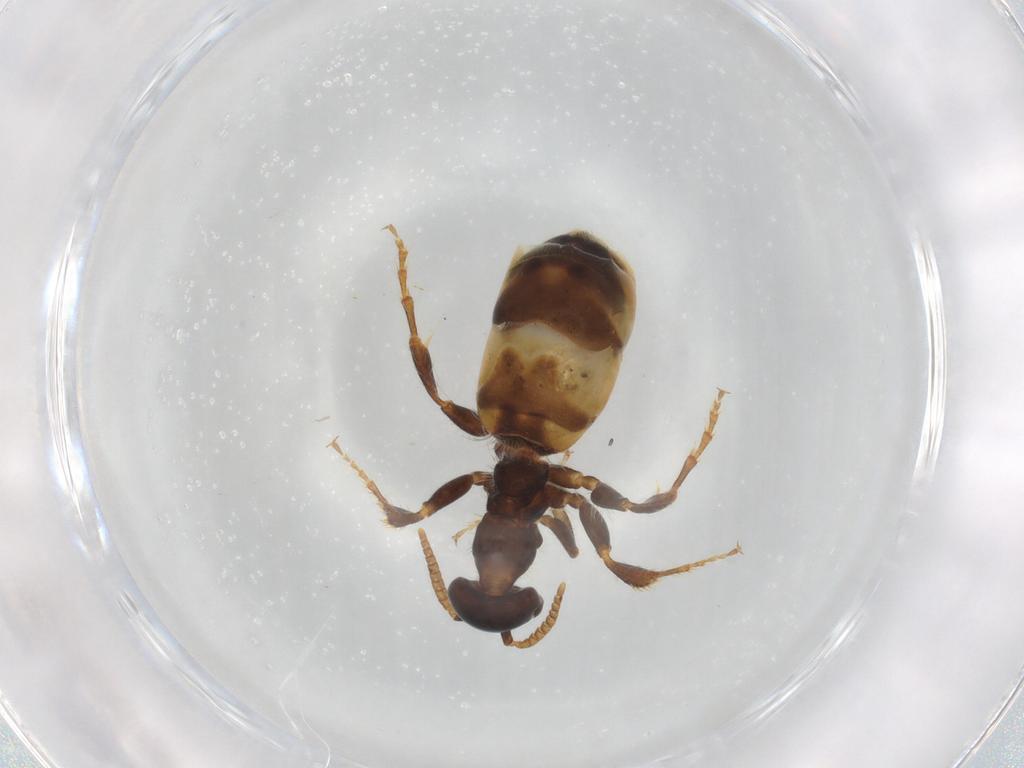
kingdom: Animalia
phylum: Arthropoda
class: Insecta
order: Hymenoptera
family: Thynnidae
